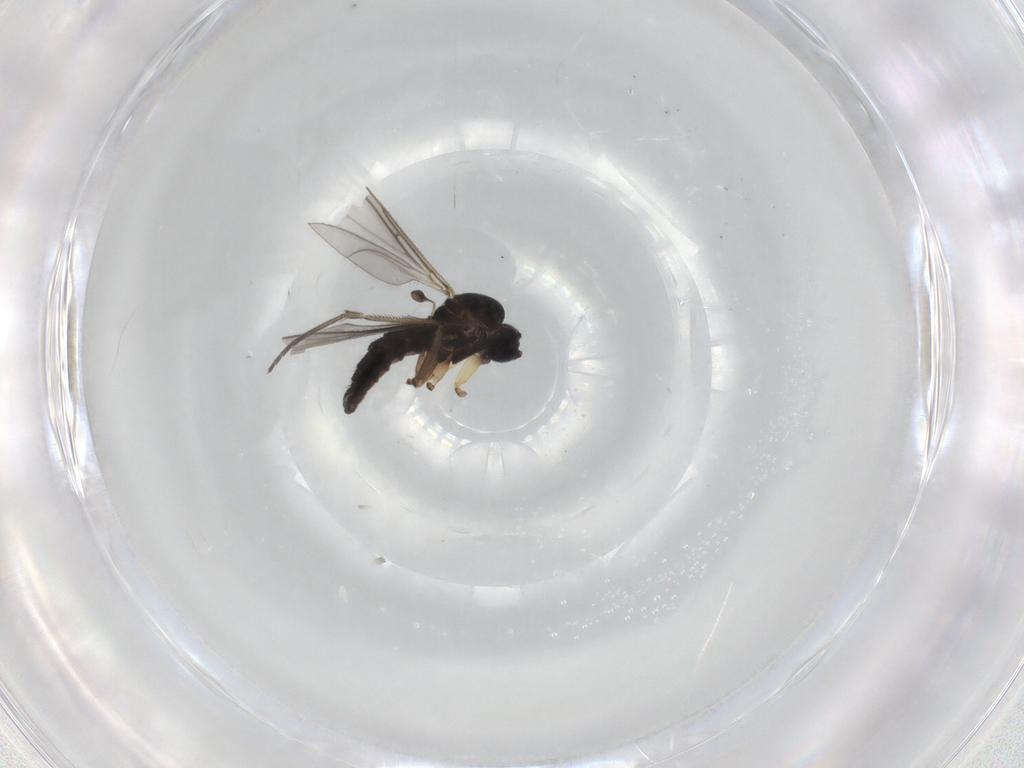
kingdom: Animalia
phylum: Arthropoda
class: Insecta
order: Diptera
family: Sciaridae
